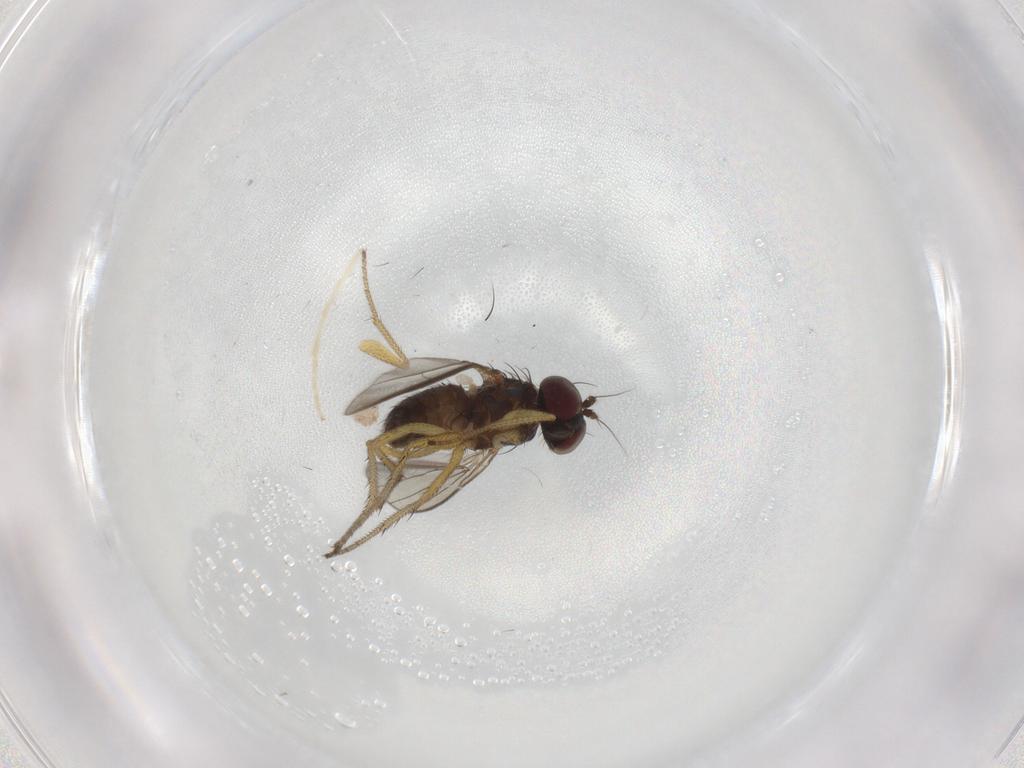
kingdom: Animalia
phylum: Arthropoda
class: Insecta
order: Diptera
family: Dolichopodidae
